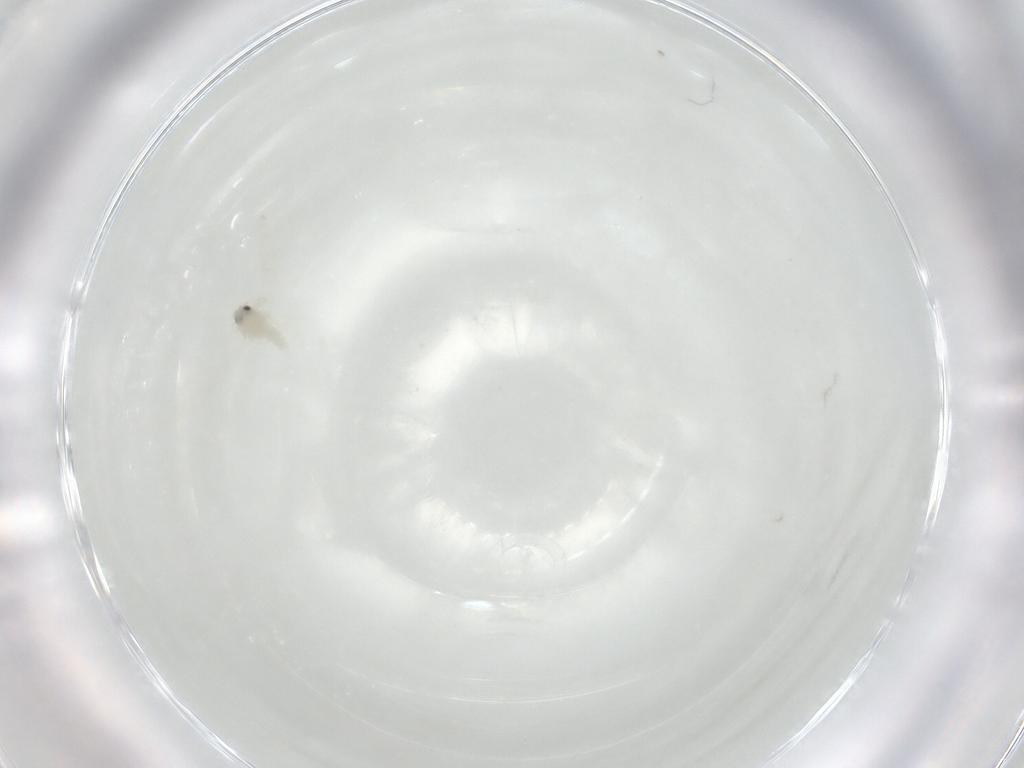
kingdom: Animalia
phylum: Arthropoda
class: Insecta
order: Hemiptera
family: Aleyrodidae
